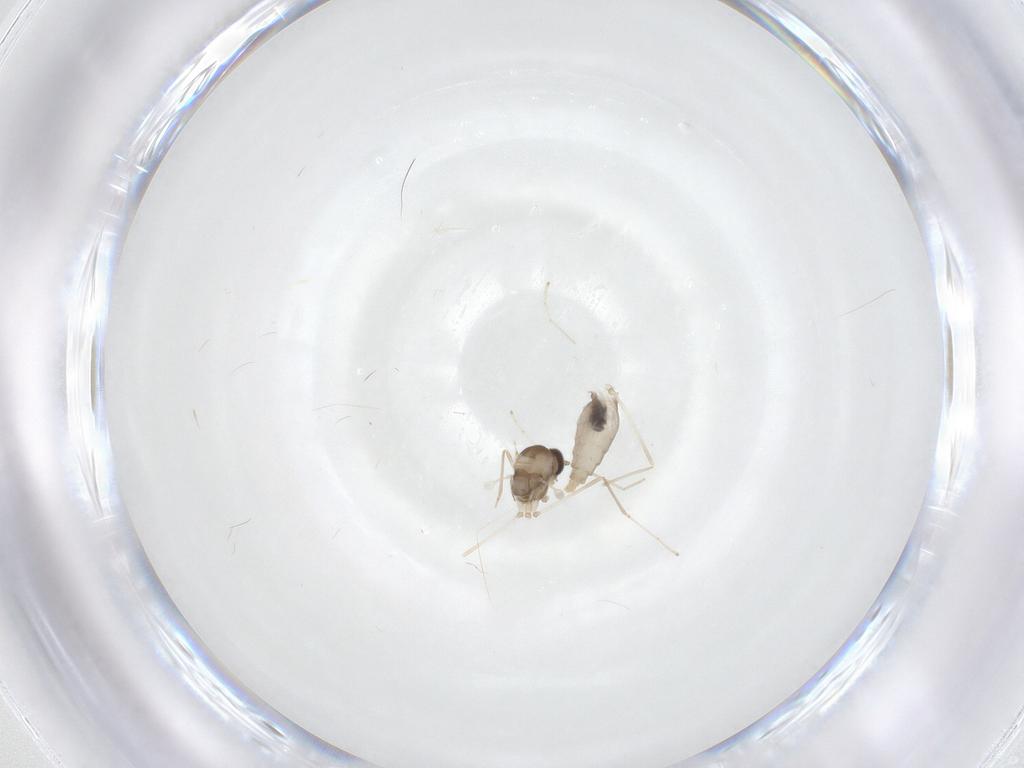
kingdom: Animalia
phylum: Arthropoda
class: Insecta
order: Diptera
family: Cecidomyiidae
